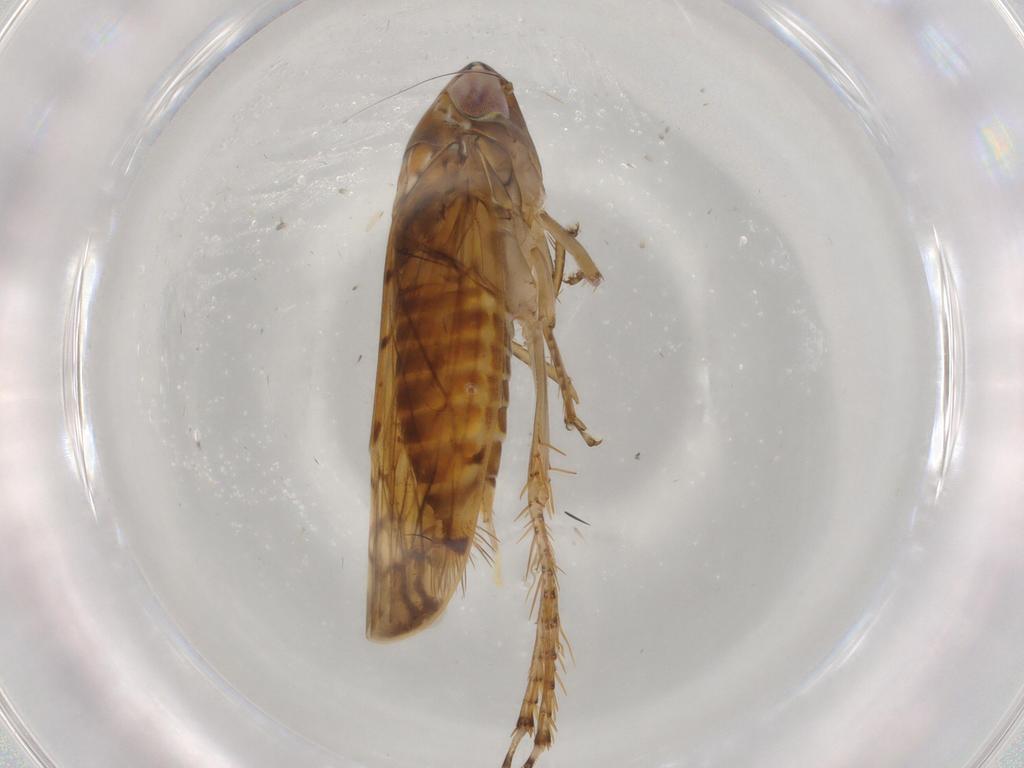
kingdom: Animalia
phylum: Arthropoda
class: Insecta
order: Hemiptera
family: Cicadellidae
